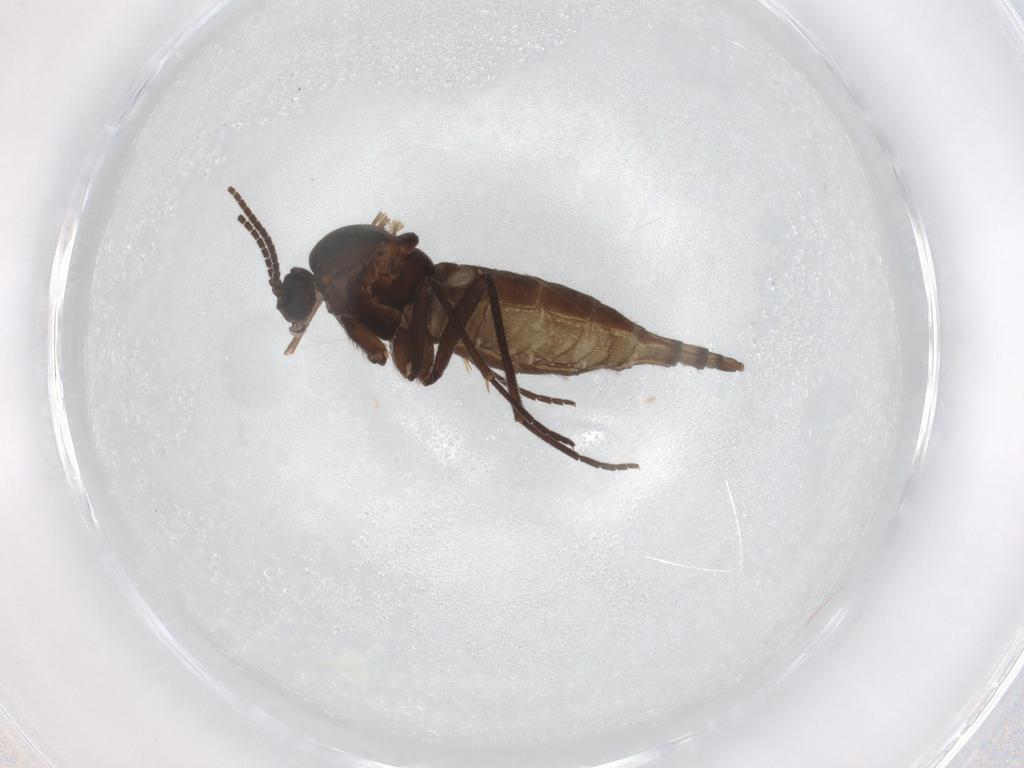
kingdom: Animalia
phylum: Arthropoda
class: Insecta
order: Diptera
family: Sciaridae
